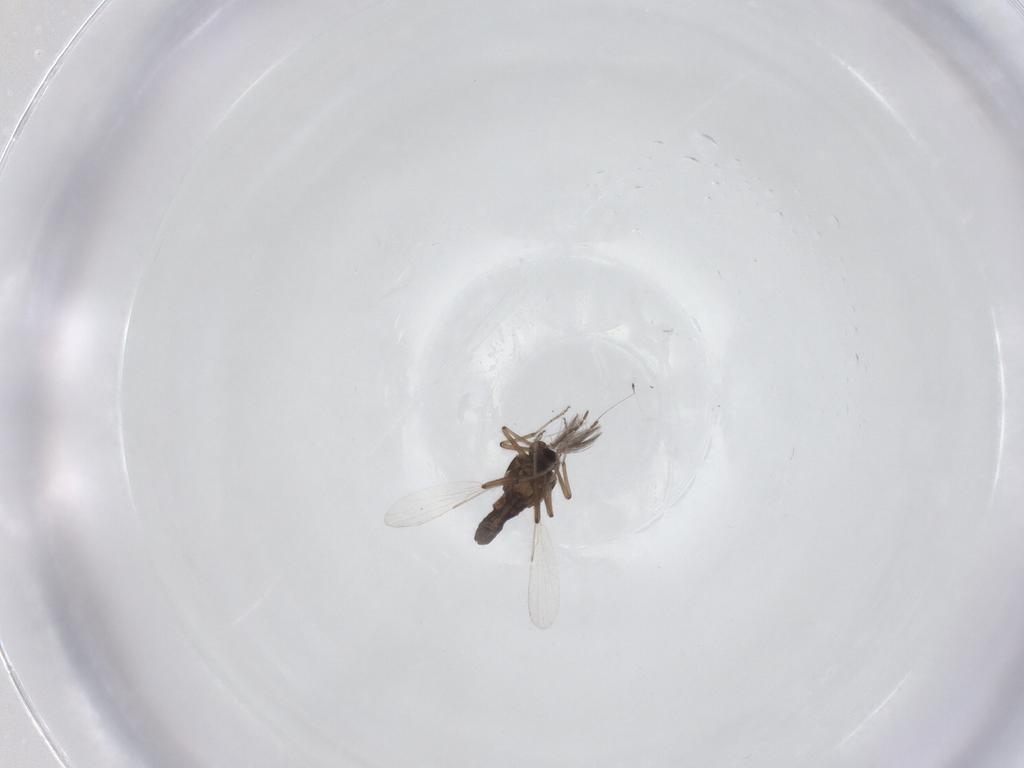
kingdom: Animalia
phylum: Arthropoda
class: Insecta
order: Diptera
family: Ceratopogonidae
